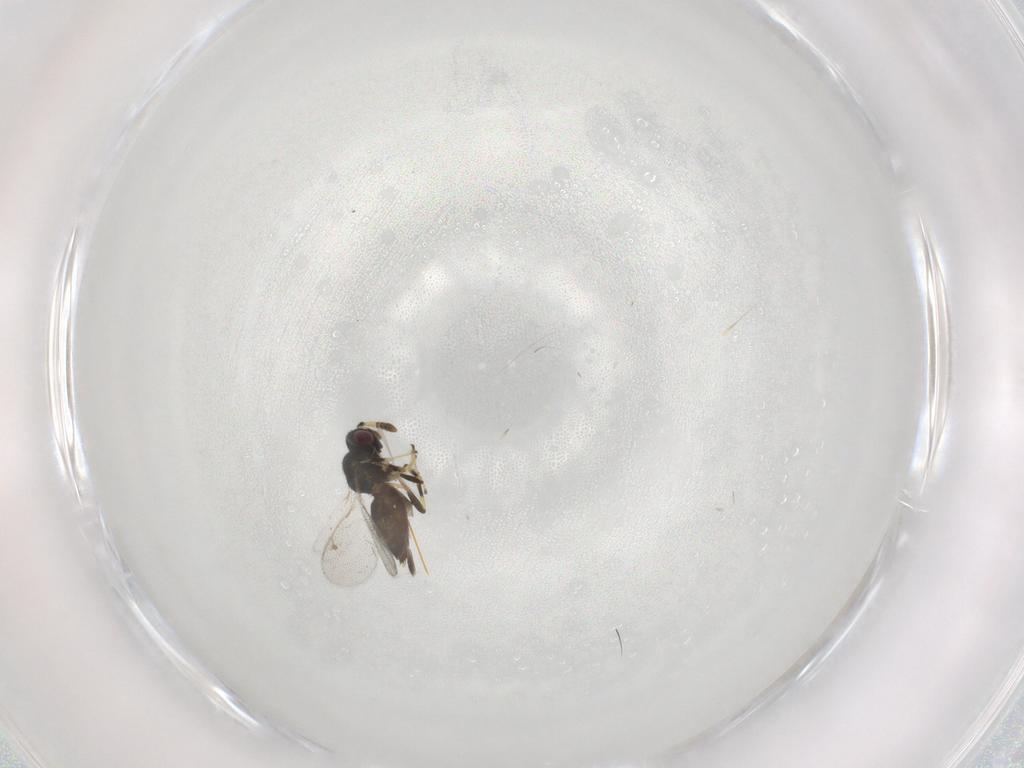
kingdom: Animalia
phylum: Arthropoda
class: Insecta
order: Hymenoptera
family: Pirenidae
